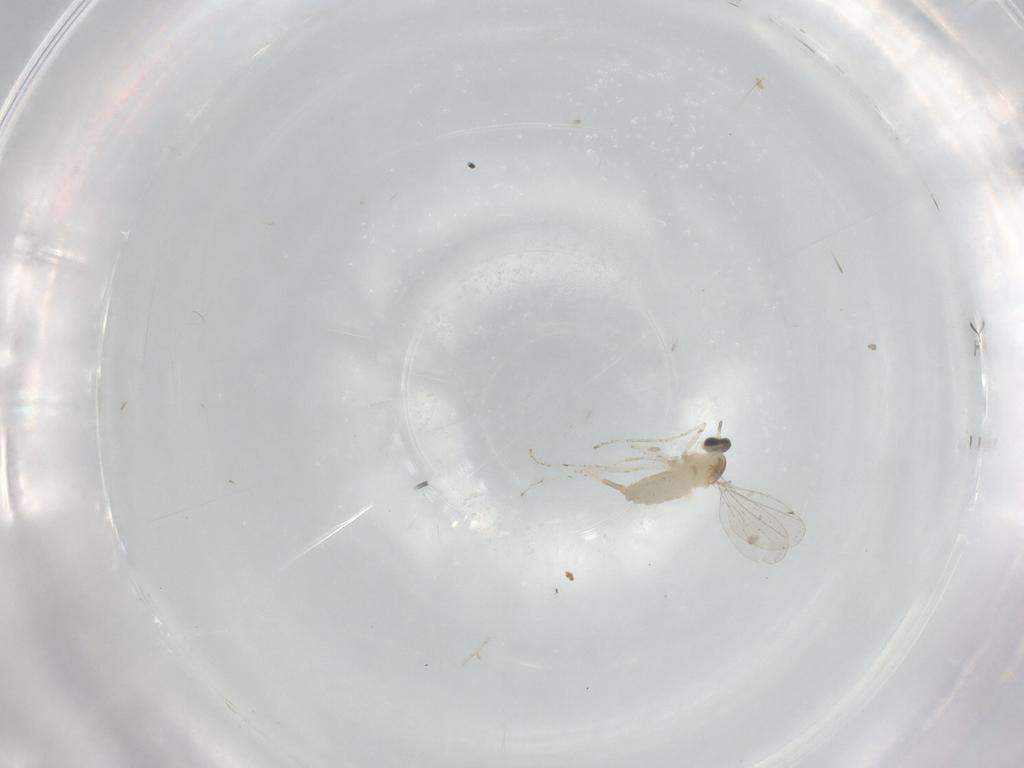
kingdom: Animalia
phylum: Arthropoda
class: Insecta
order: Diptera
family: Cecidomyiidae
